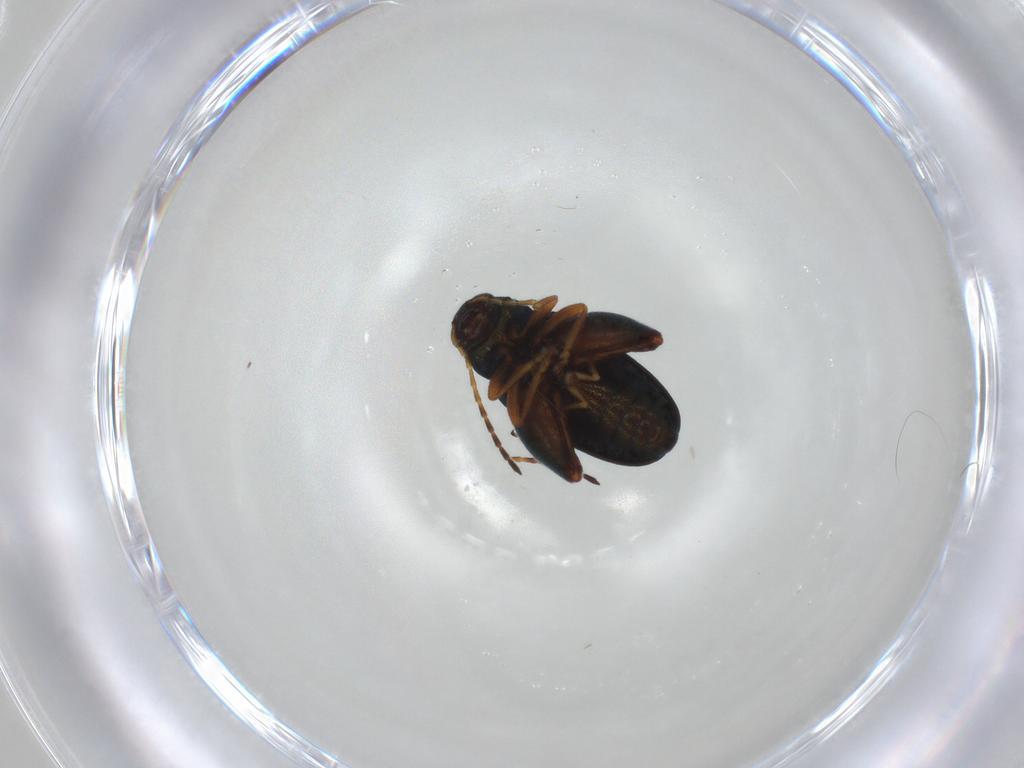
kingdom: Animalia
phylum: Arthropoda
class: Insecta
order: Coleoptera
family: Chrysomelidae
